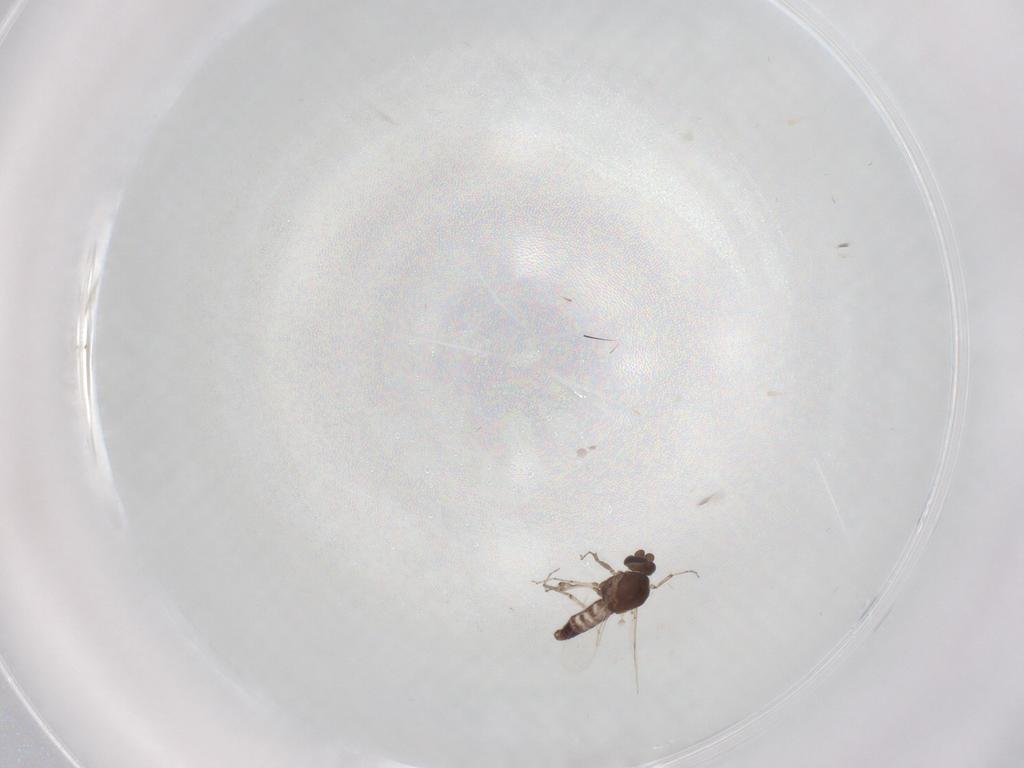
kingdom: Animalia
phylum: Arthropoda
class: Insecta
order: Diptera
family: Ceratopogonidae
